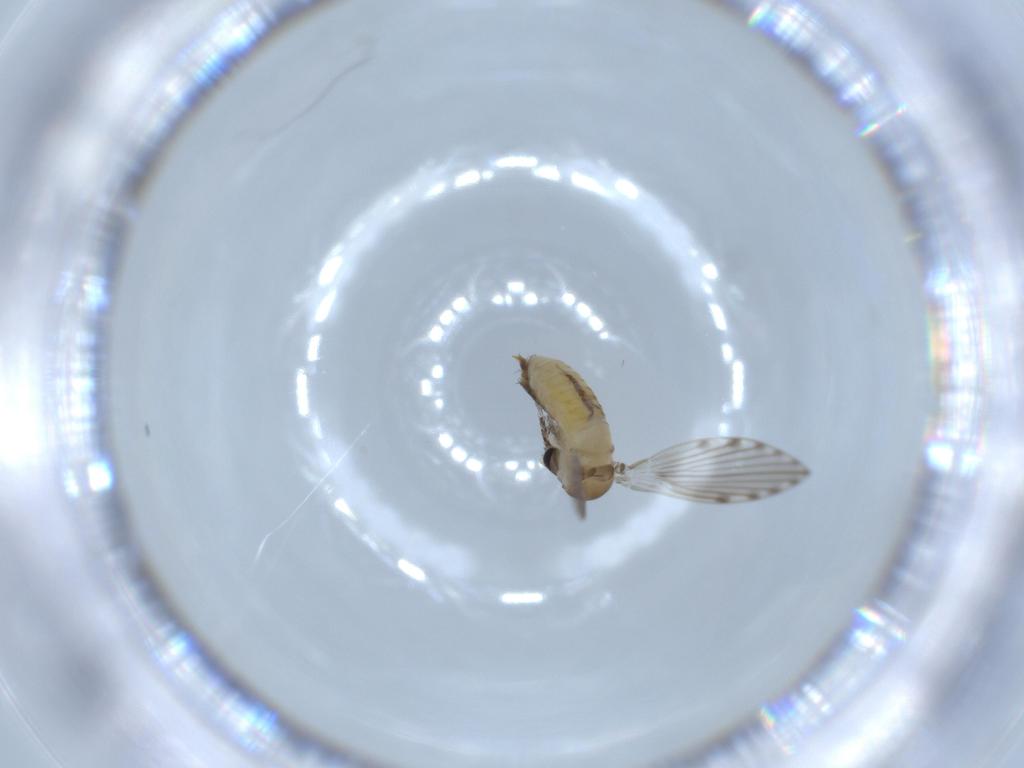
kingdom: Animalia
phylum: Arthropoda
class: Insecta
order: Diptera
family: Psychodidae
